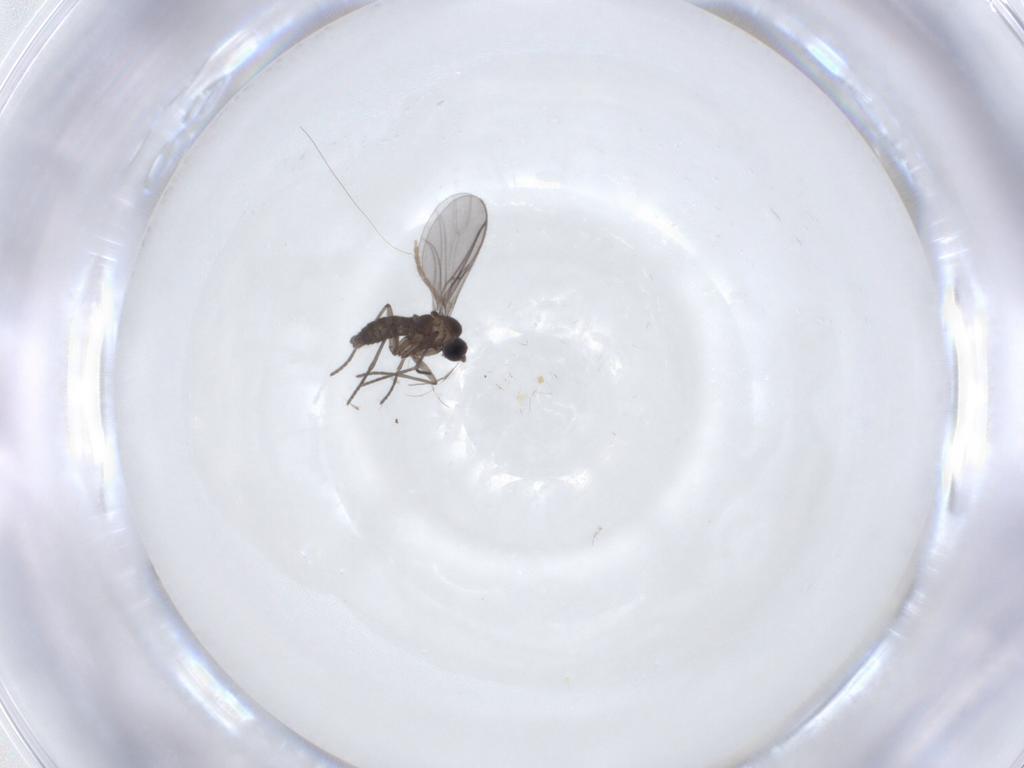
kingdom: Animalia
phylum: Arthropoda
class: Insecta
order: Diptera
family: Chironomidae
